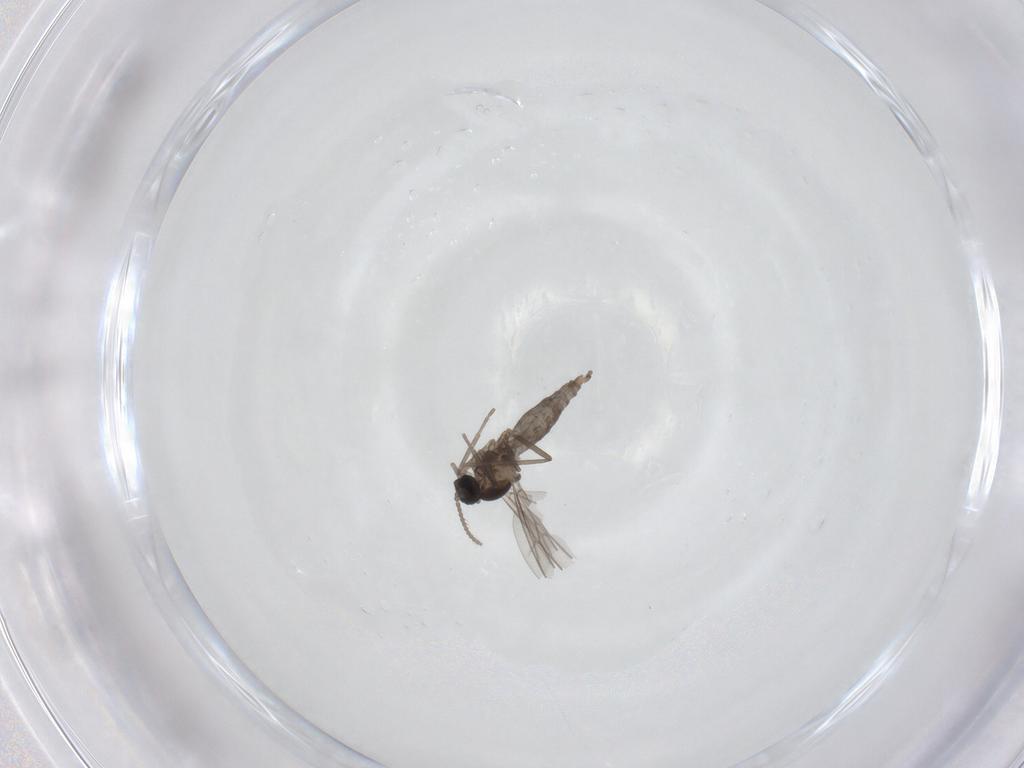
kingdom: Animalia
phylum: Arthropoda
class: Insecta
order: Diptera
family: Cecidomyiidae
